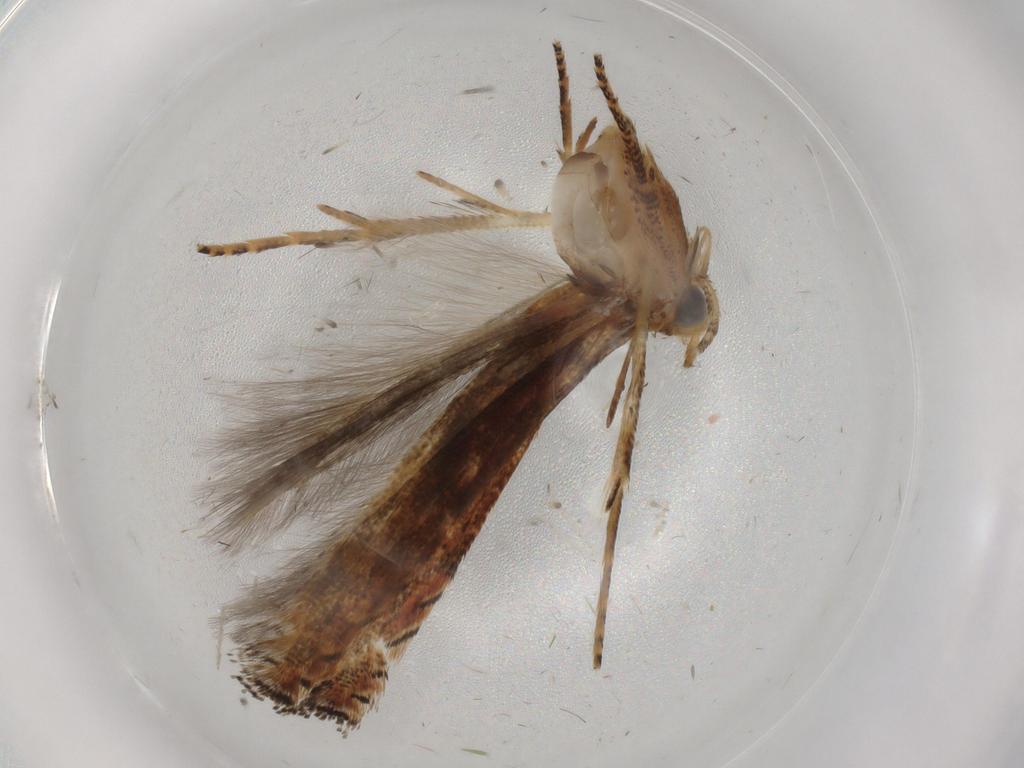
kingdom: Animalia
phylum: Arthropoda
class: Insecta
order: Lepidoptera
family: Gelechiidae
